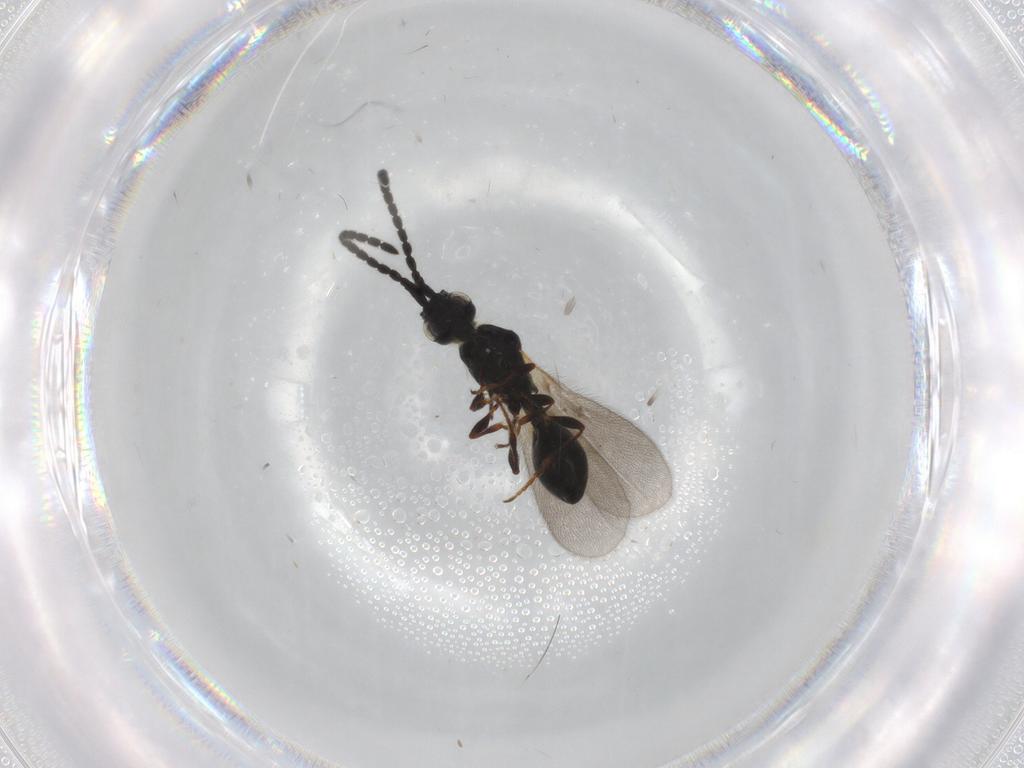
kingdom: Animalia
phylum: Arthropoda
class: Insecta
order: Hymenoptera
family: Diapriidae
